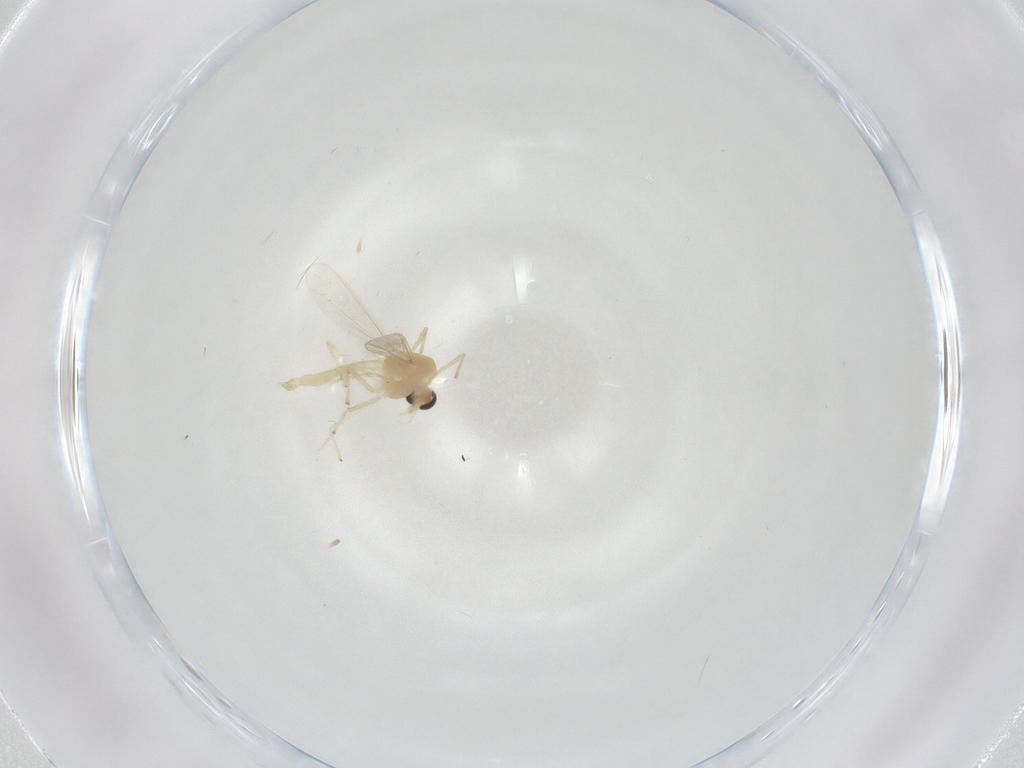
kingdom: Animalia
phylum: Arthropoda
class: Insecta
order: Diptera
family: Chironomidae
